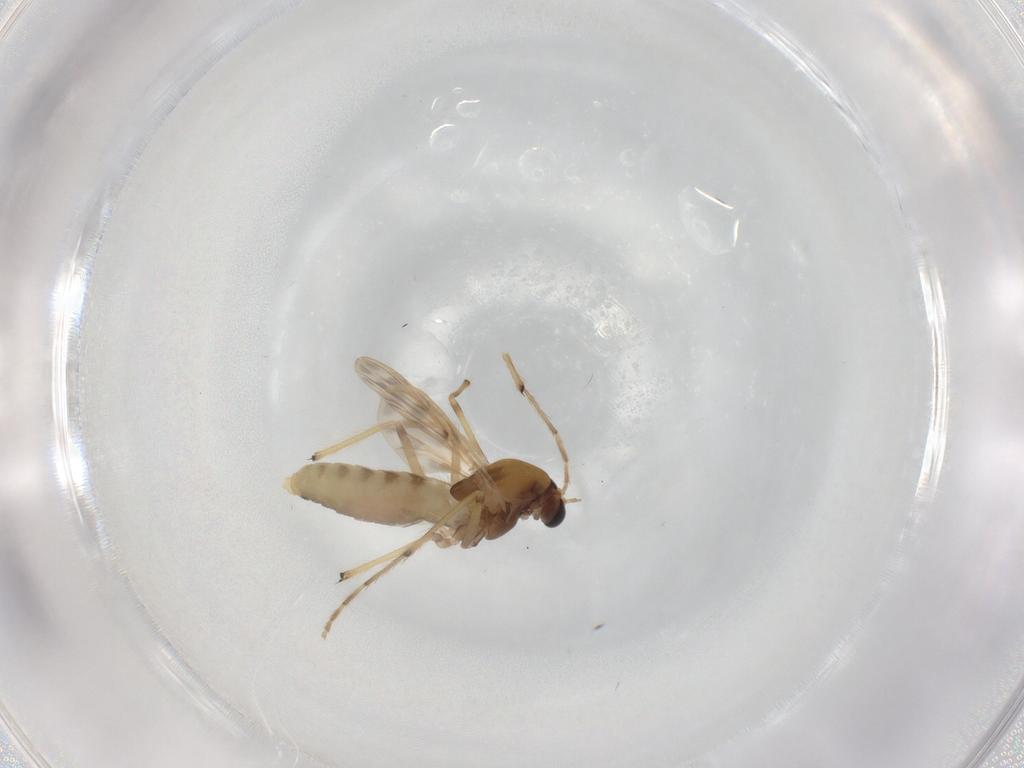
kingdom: Animalia
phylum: Arthropoda
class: Insecta
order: Diptera
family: Chironomidae
